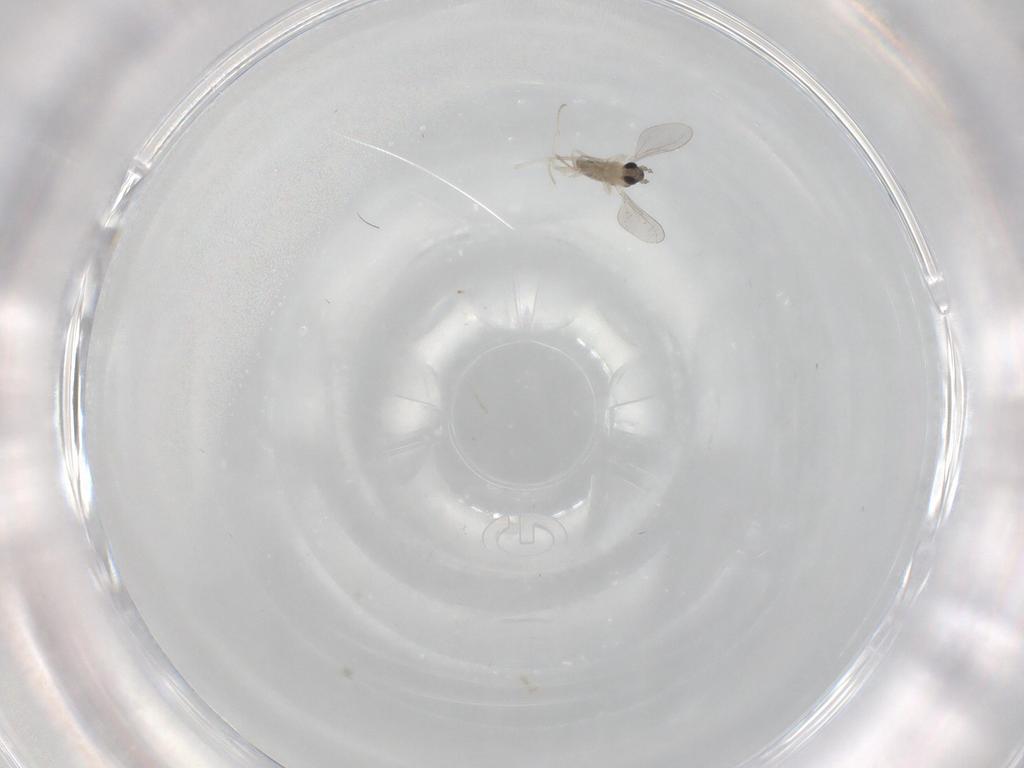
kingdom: Animalia
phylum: Arthropoda
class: Insecta
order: Diptera
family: Cecidomyiidae
